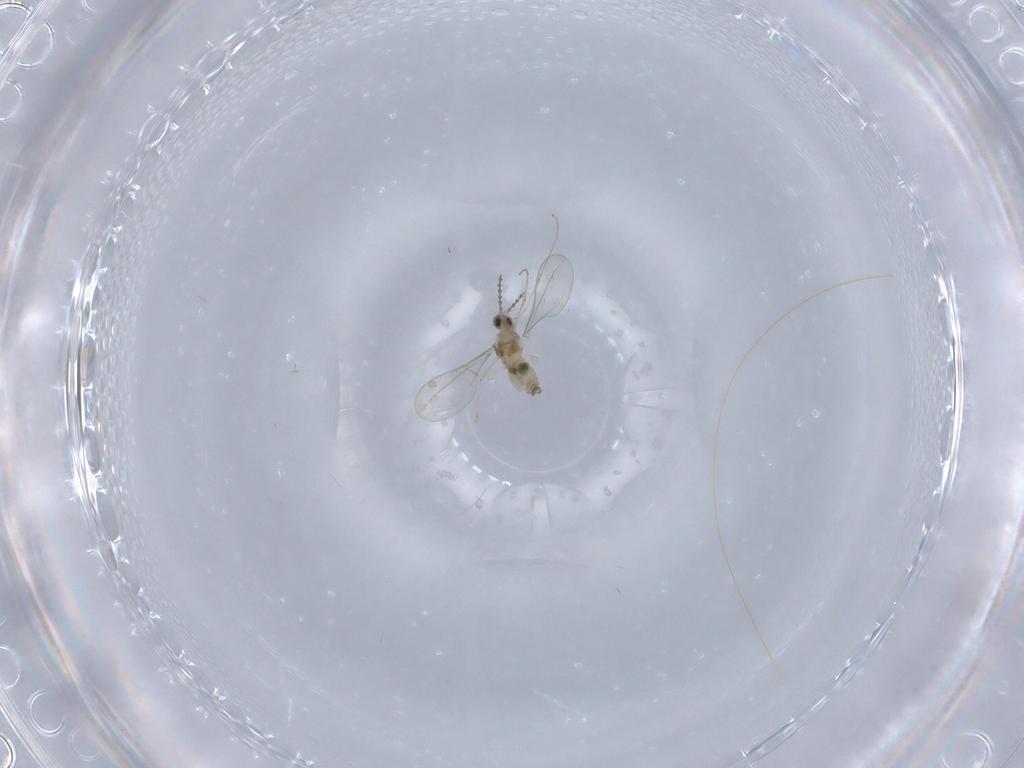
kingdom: Animalia
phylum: Arthropoda
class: Insecta
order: Diptera
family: Cecidomyiidae
